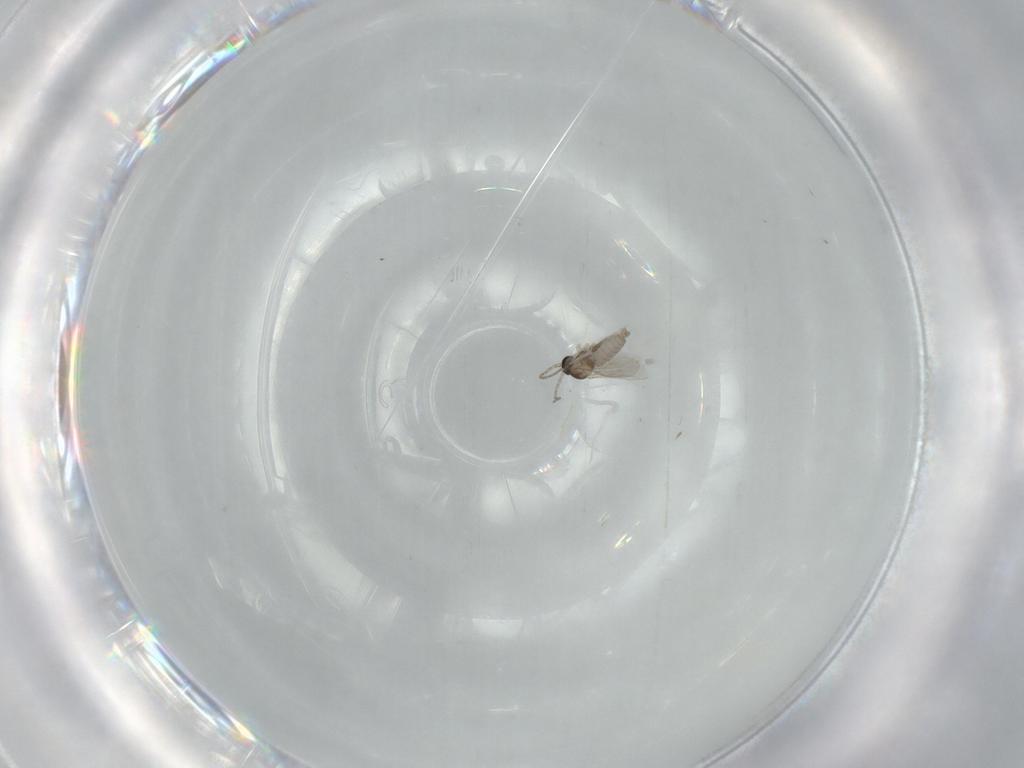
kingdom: Animalia
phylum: Arthropoda
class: Insecta
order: Diptera
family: Cecidomyiidae
